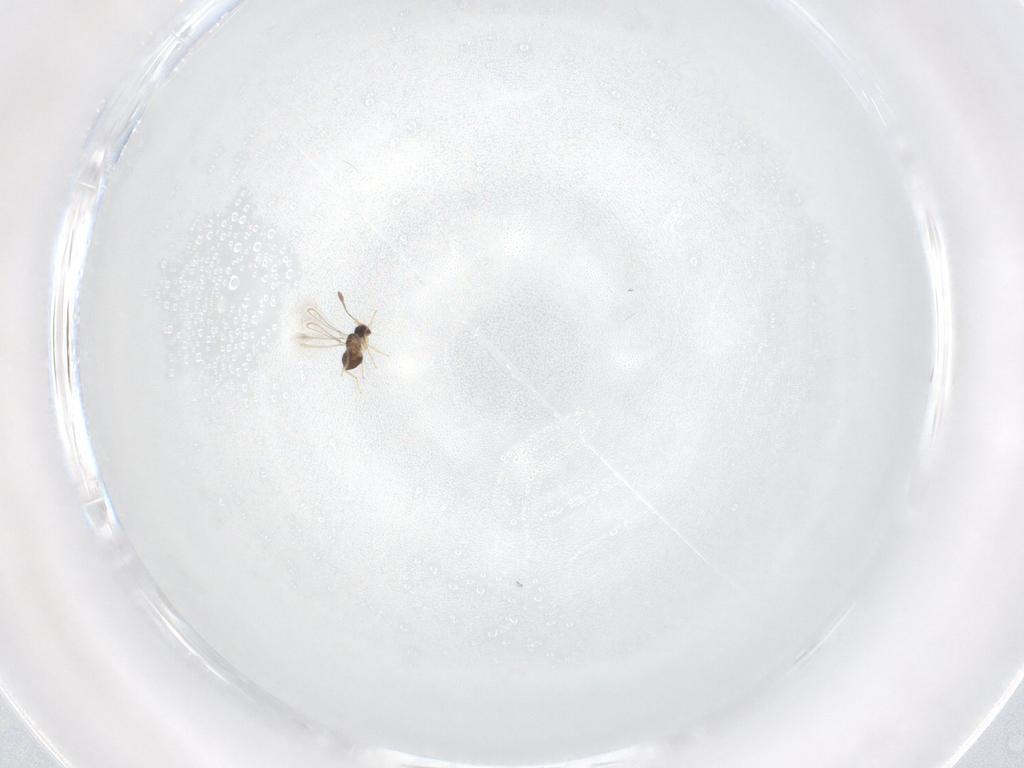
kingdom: Animalia
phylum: Arthropoda
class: Insecta
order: Hymenoptera
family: Mymaridae
